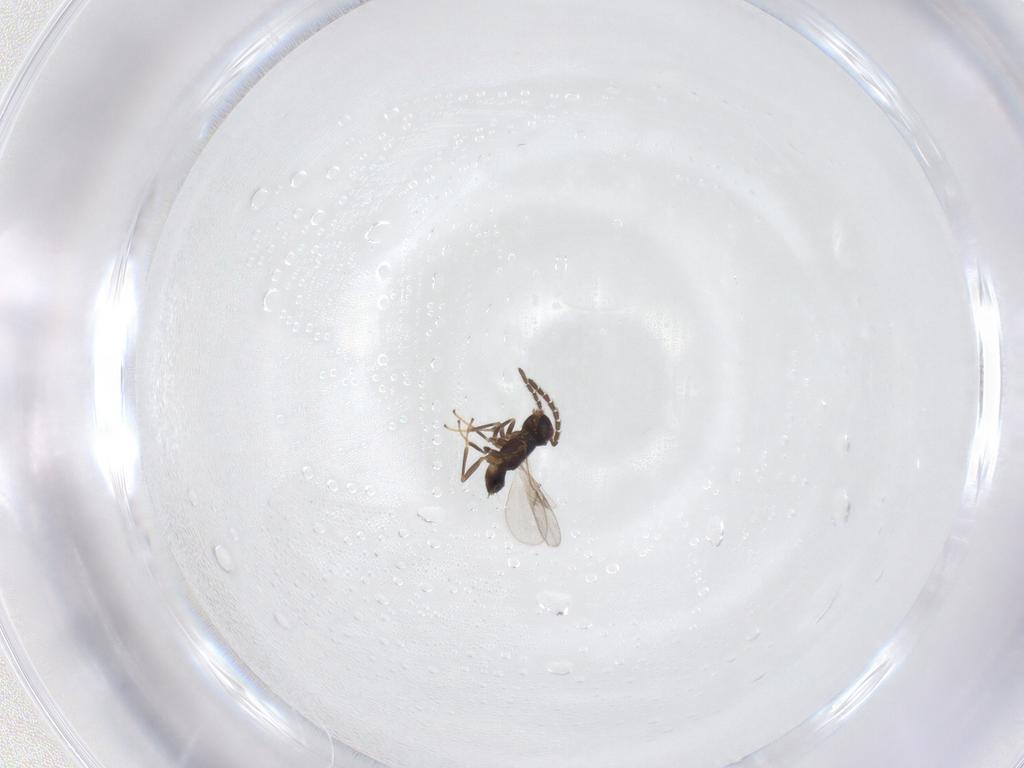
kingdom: Animalia
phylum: Arthropoda
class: Insecta
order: Hymenoptera
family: Encyrtidae
